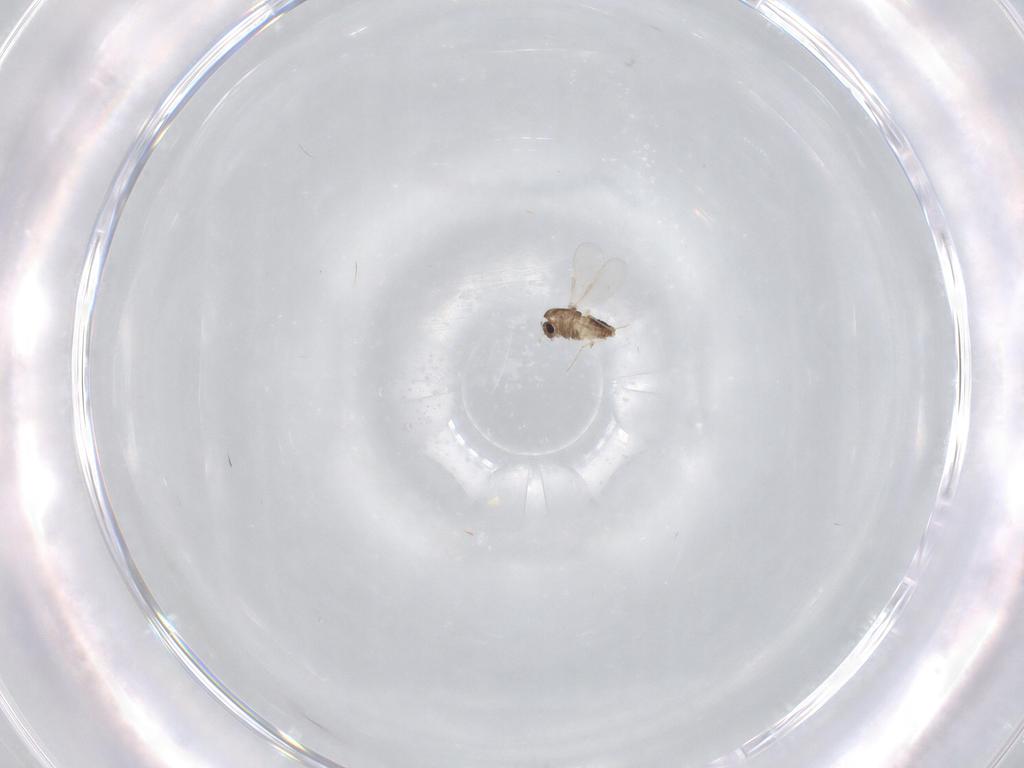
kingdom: Animalia
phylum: Arthropoda
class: Insecta
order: Diptera
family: Chironomidae
